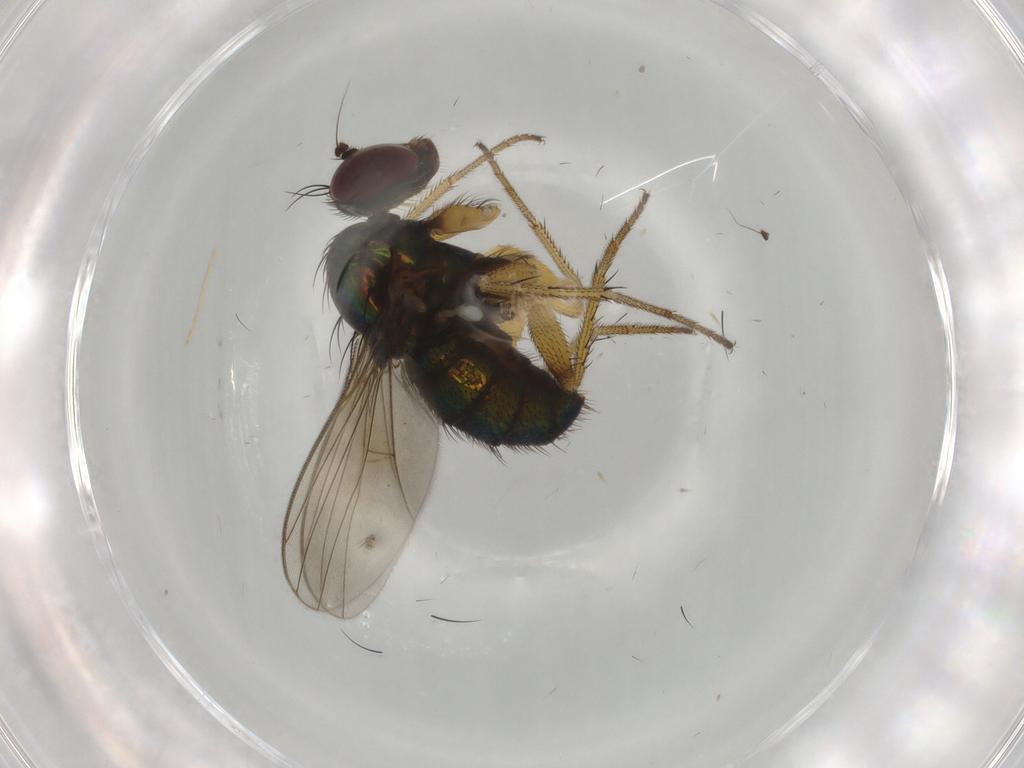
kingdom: Animalia
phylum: Arthropoda
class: Insecta
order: Diptera
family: Dolichopodidae
